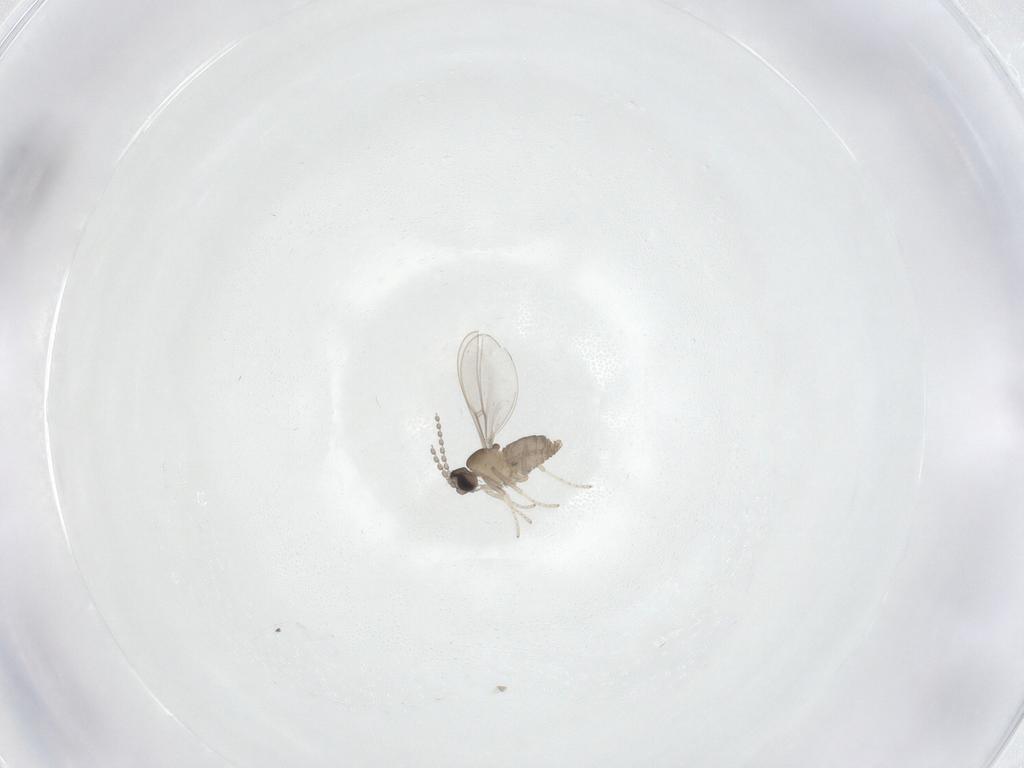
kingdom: Animalia
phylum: Arthropoda
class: Insecta
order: Diptera
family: Cecidomyiidae
